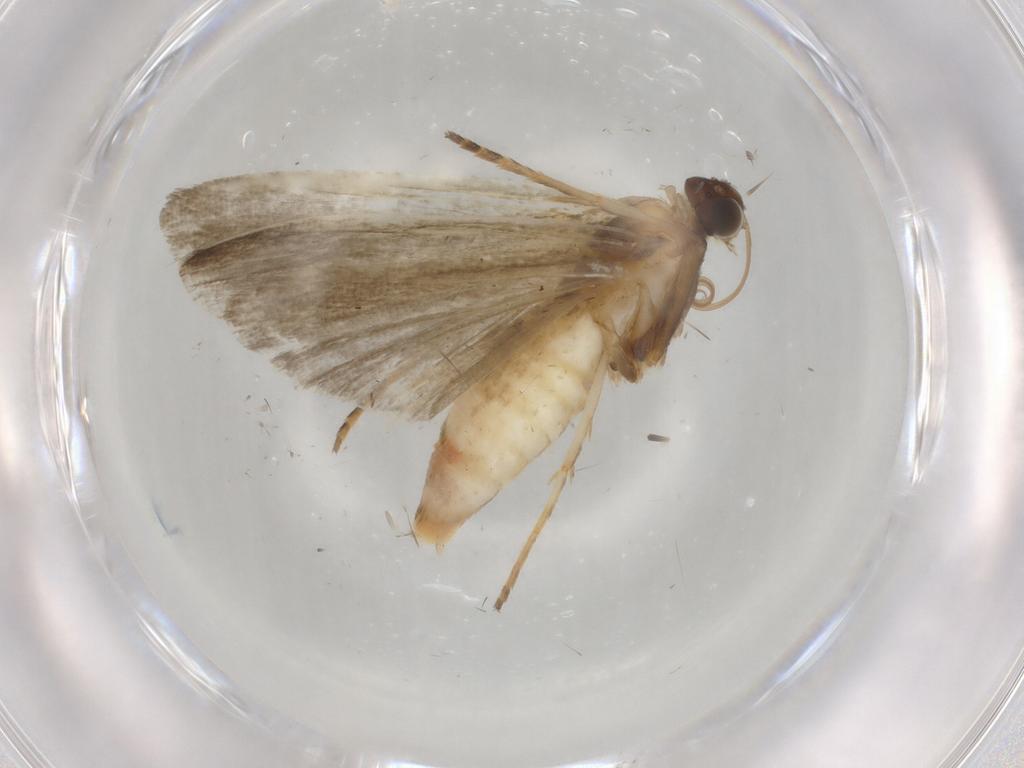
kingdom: Animalia
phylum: Arthropoda
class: Insecta
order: Lepidoptera
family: Noctuidae
